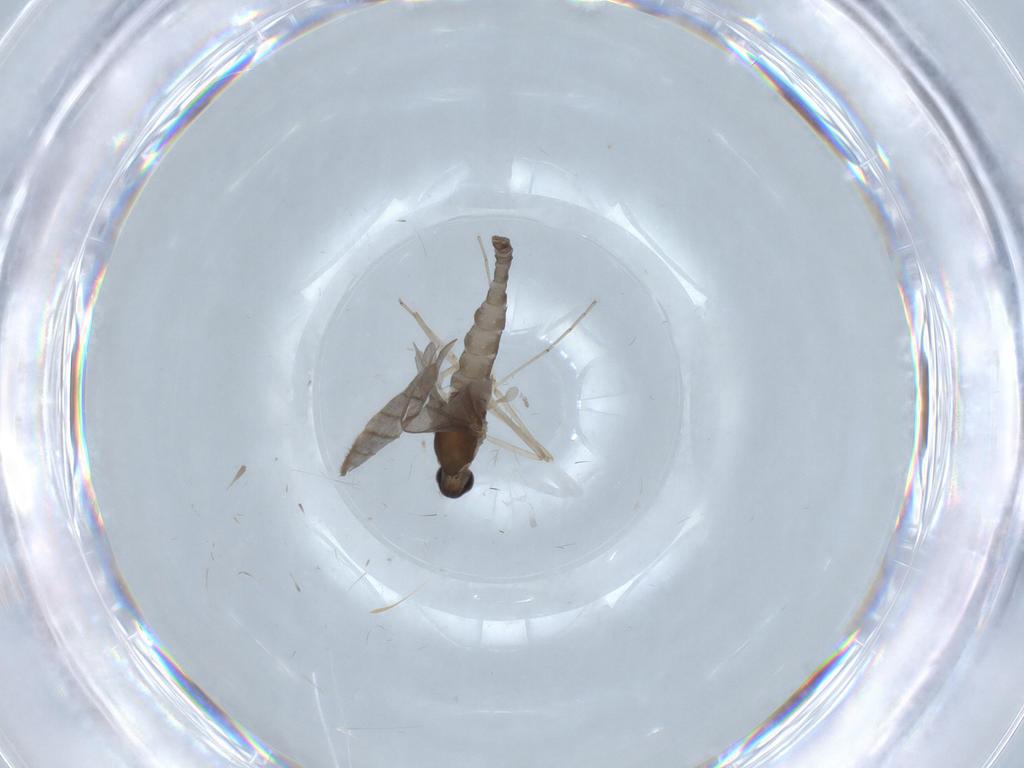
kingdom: Animalia
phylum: Arthropoda
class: Insecta
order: Diptera
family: Cecidomyiidae
